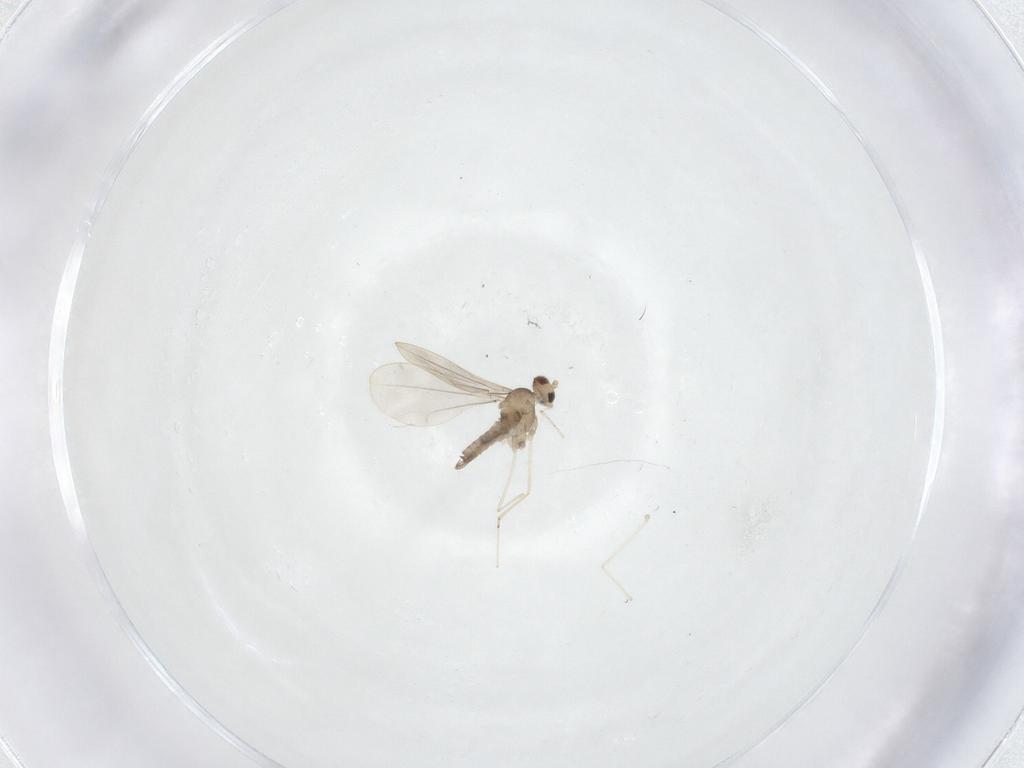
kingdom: Animalia
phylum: Arthropoda
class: Insecta
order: Diptera
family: Cecidomyiidae
